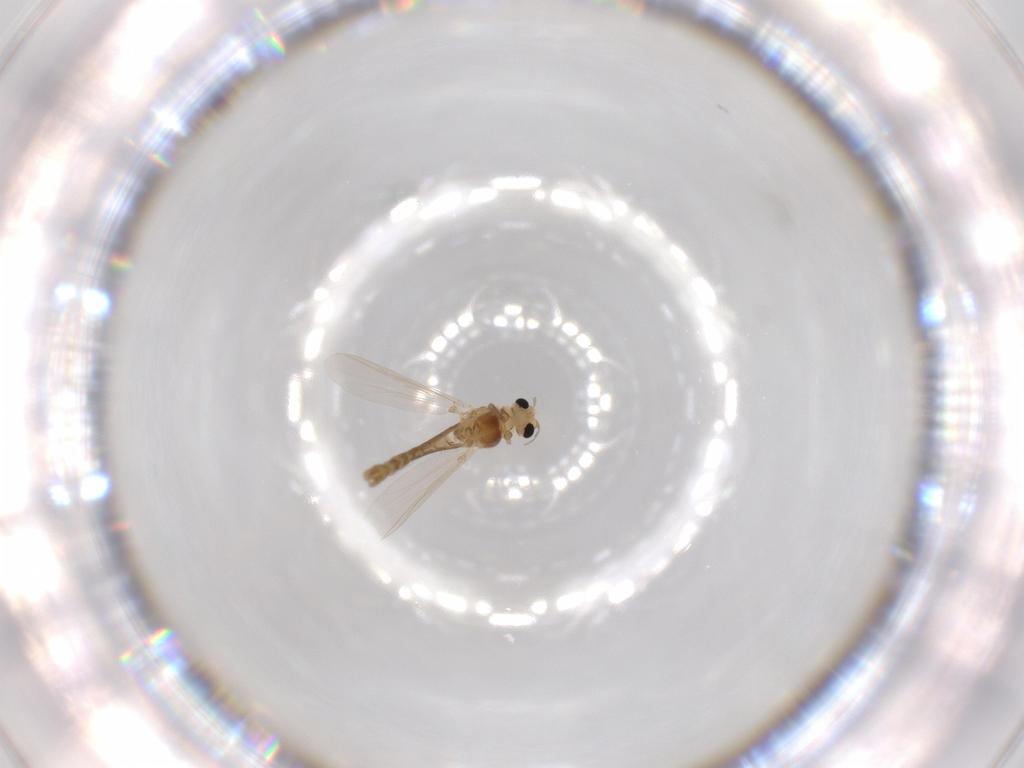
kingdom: Animalia
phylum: Arthropoda
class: Insecta
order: Diptera
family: Chironomidae
